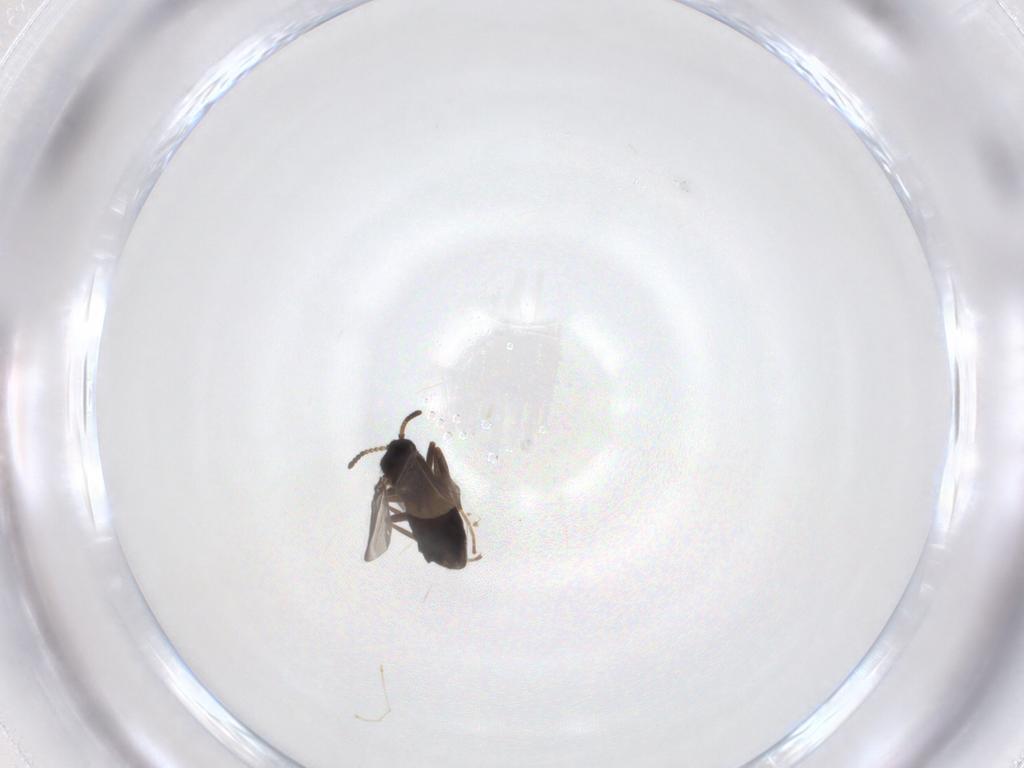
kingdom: Animalia
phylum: Arthropoda
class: Insecta
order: Diptera
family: Scatopsidae
